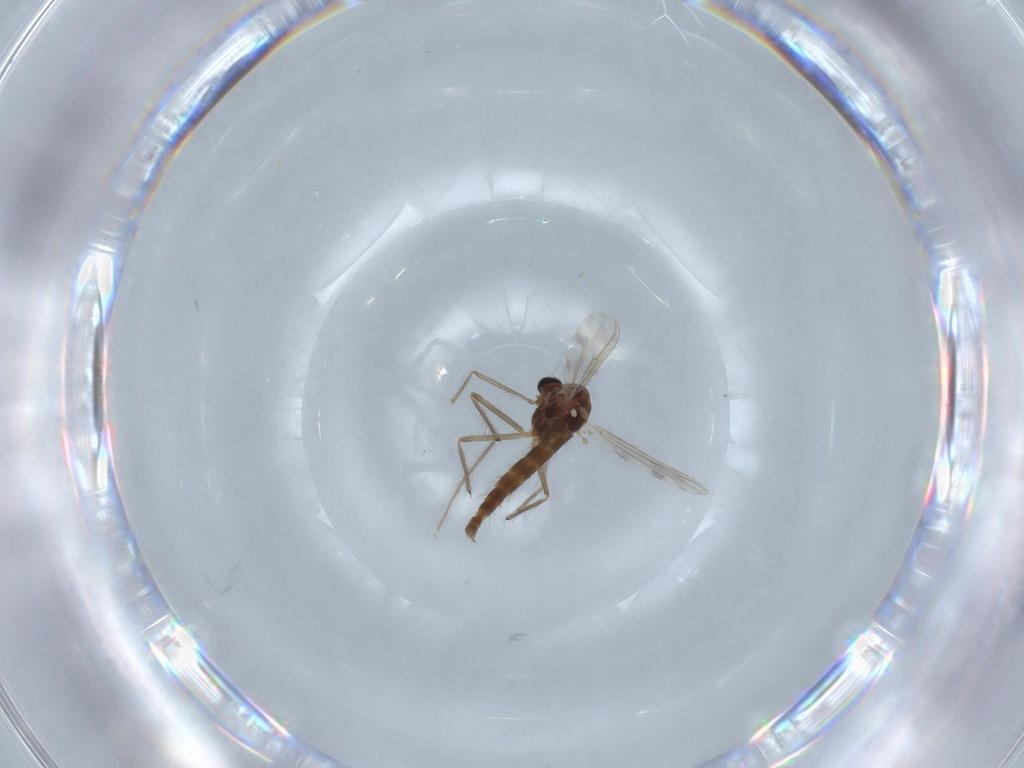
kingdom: Animalia
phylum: Arthropoda
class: Insecta
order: Diptera
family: Chironomidae
